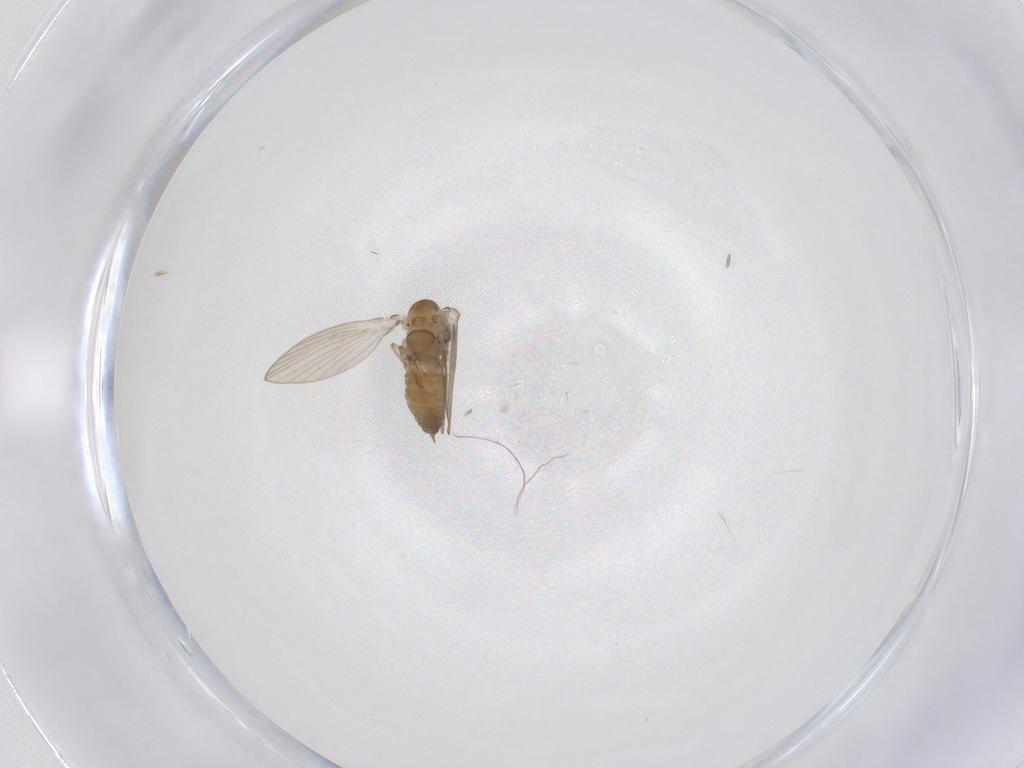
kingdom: Animalia
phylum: Arthropoda
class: Insecta
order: Diptera
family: Psychodidae
